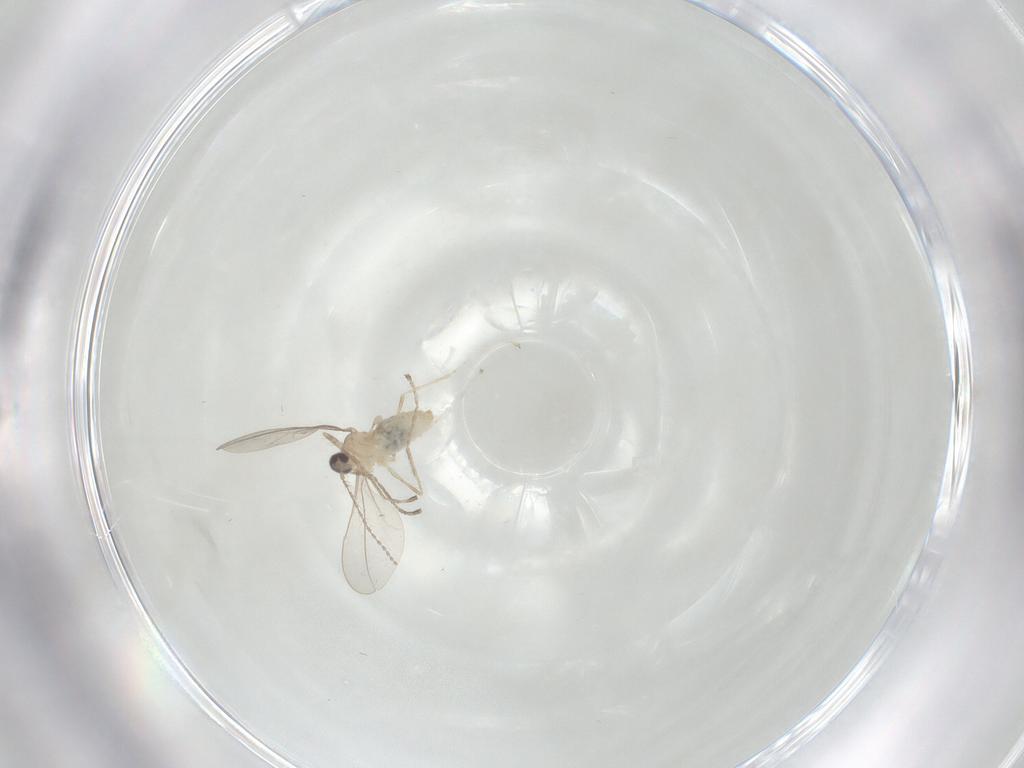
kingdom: Animalia
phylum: Arthropoda
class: Insecta
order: Diptera
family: Cecidomyiidae
